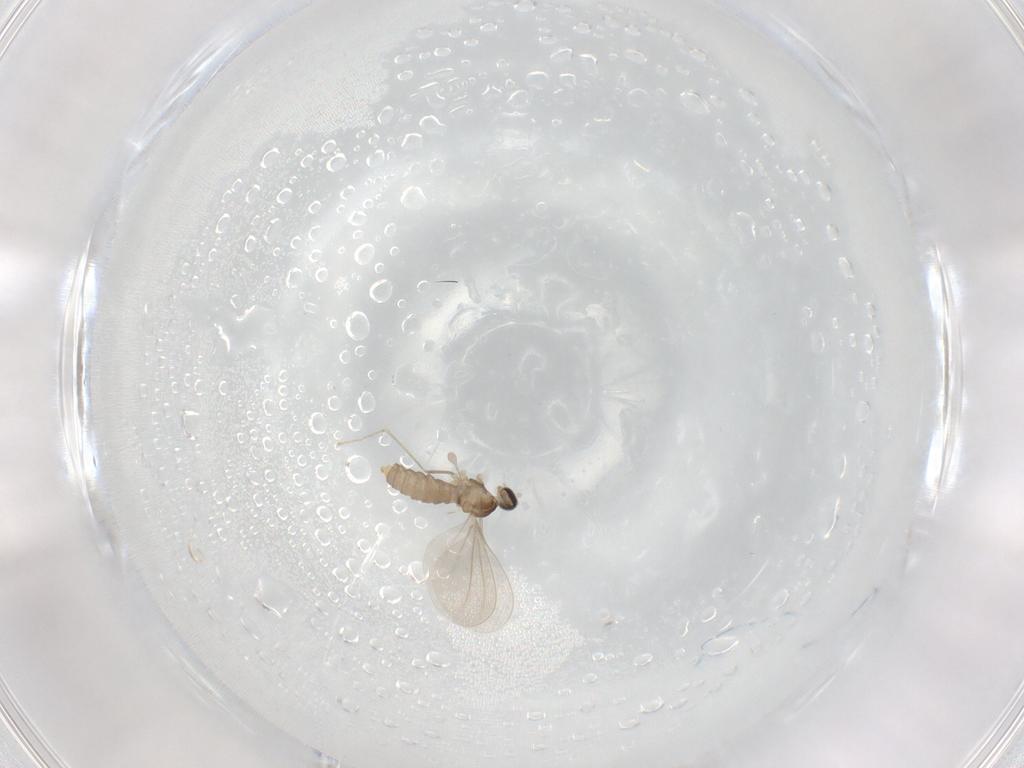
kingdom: Animalia
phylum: Arthropoda
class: Insecta
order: Diptera
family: Cecidomyiidae
